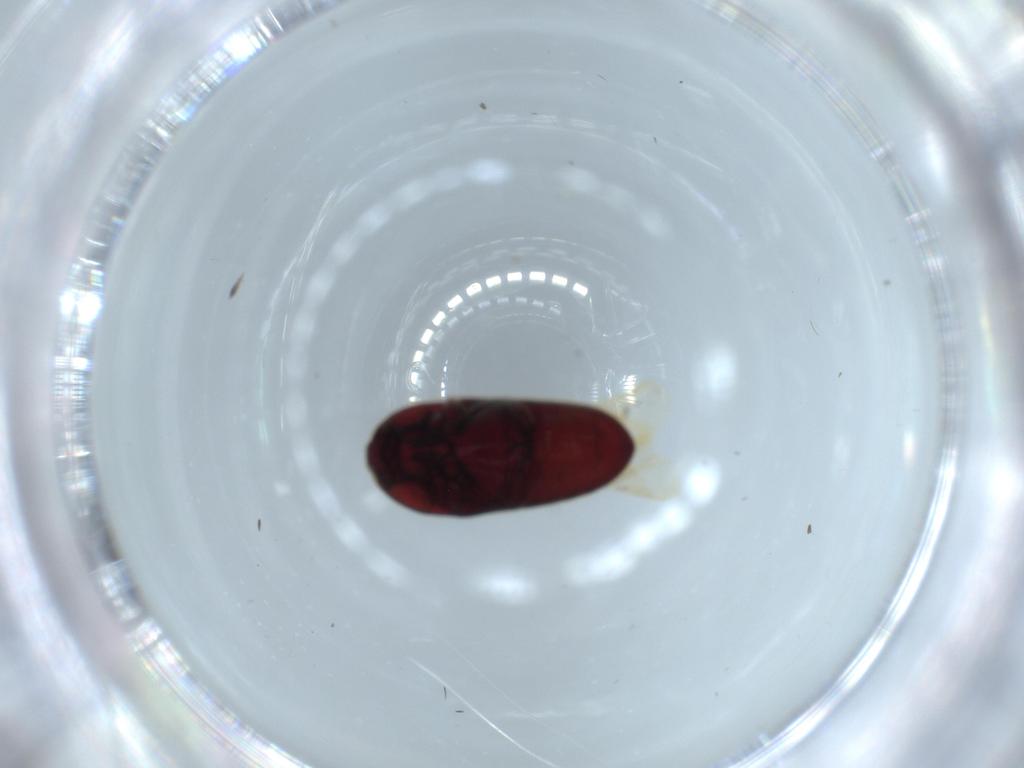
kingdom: Animalia
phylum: Arthropoda
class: Insecta
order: Coleoptera
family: Throscidae
